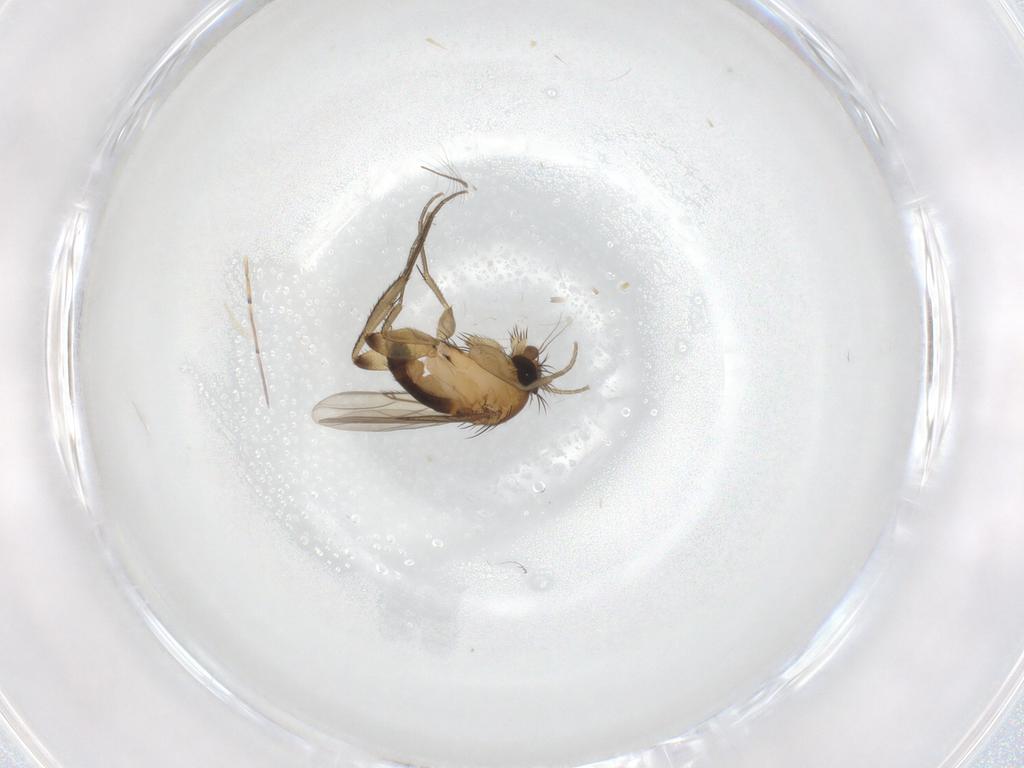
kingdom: Animalia
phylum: Arthropoda
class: Insecta
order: Diptera
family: Phoridae
